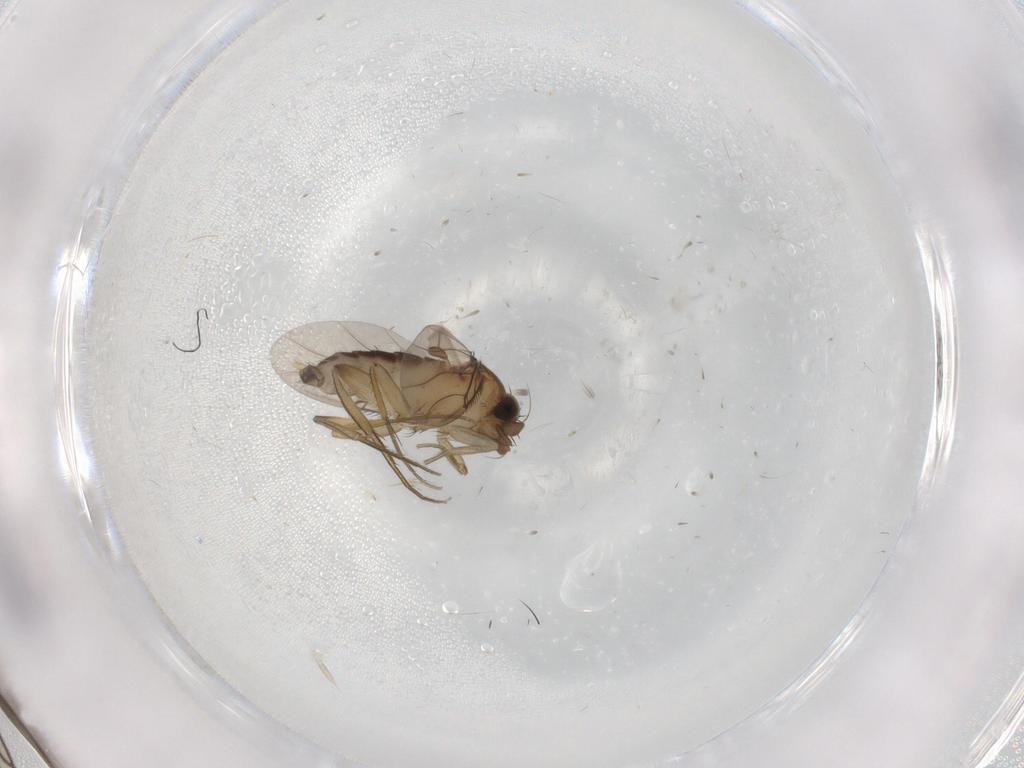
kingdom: Animalia
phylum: Arthropoda
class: Insecta
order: Diptera
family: Phoridae
